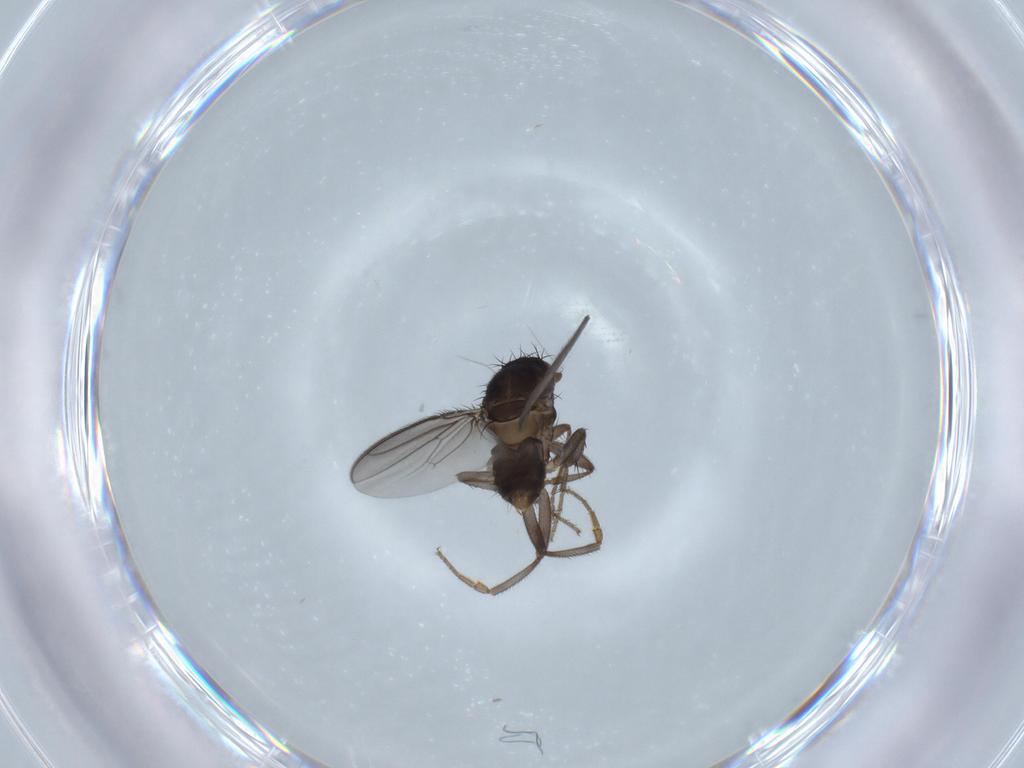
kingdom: Animalia
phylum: Arthropoda
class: Insecta
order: Diptera
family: Sphaeroceridae
